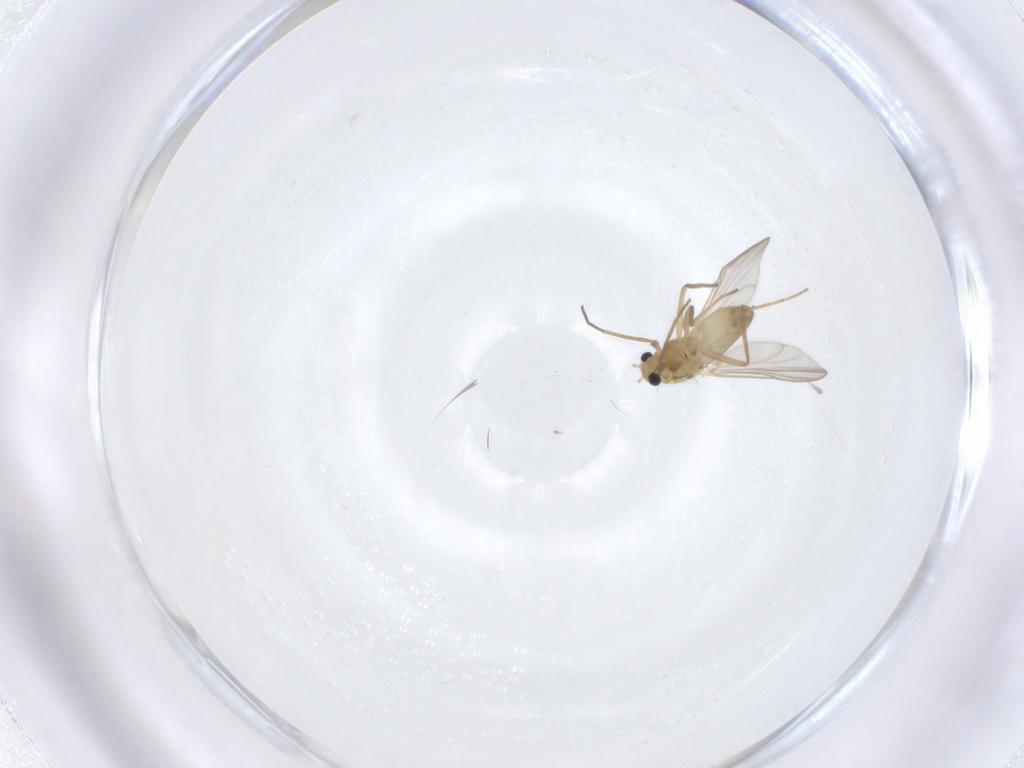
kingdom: Animalia
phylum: Arthropoda
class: Insecta
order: Diptera
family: Chironomidae
